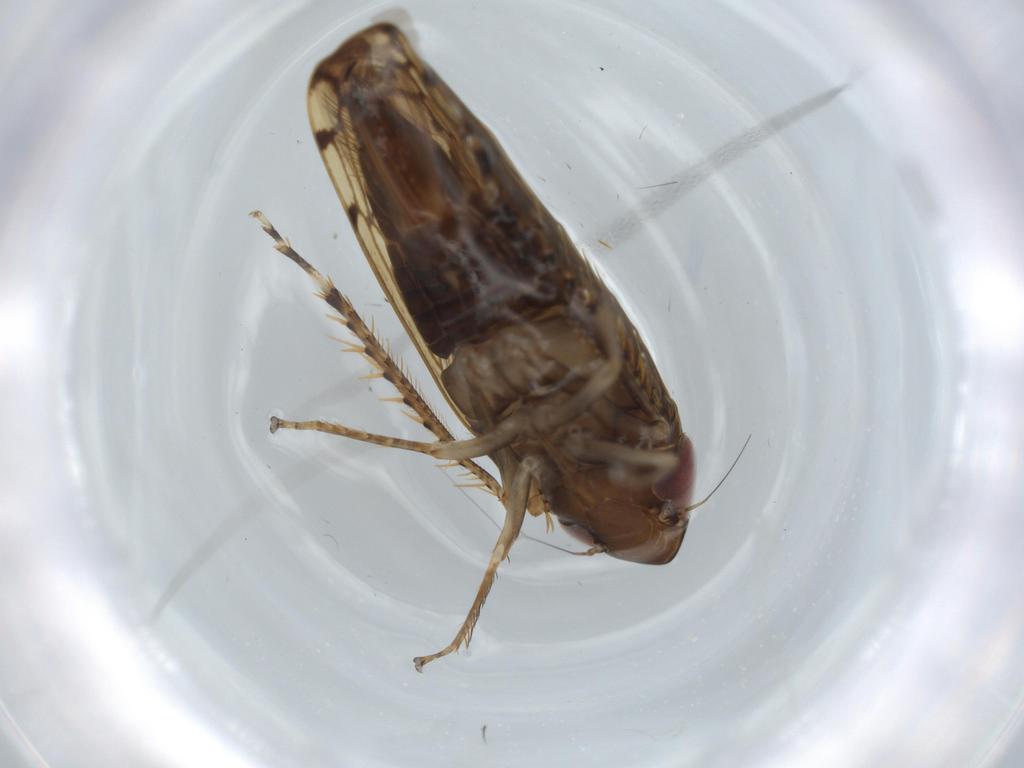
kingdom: Animalia
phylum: Arthropoda
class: Insecta
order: Hemiptera
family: Cicadellidae
